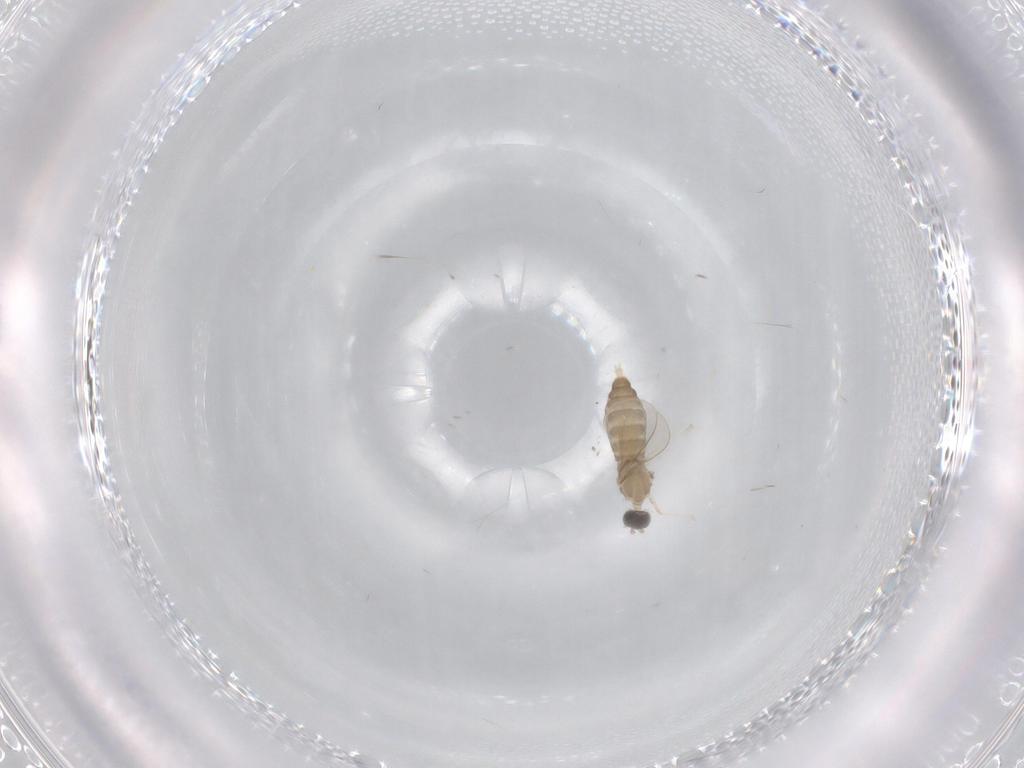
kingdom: Animalia
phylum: Arthropoda
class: Insecta
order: Diptera
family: Cecidomyiidae
